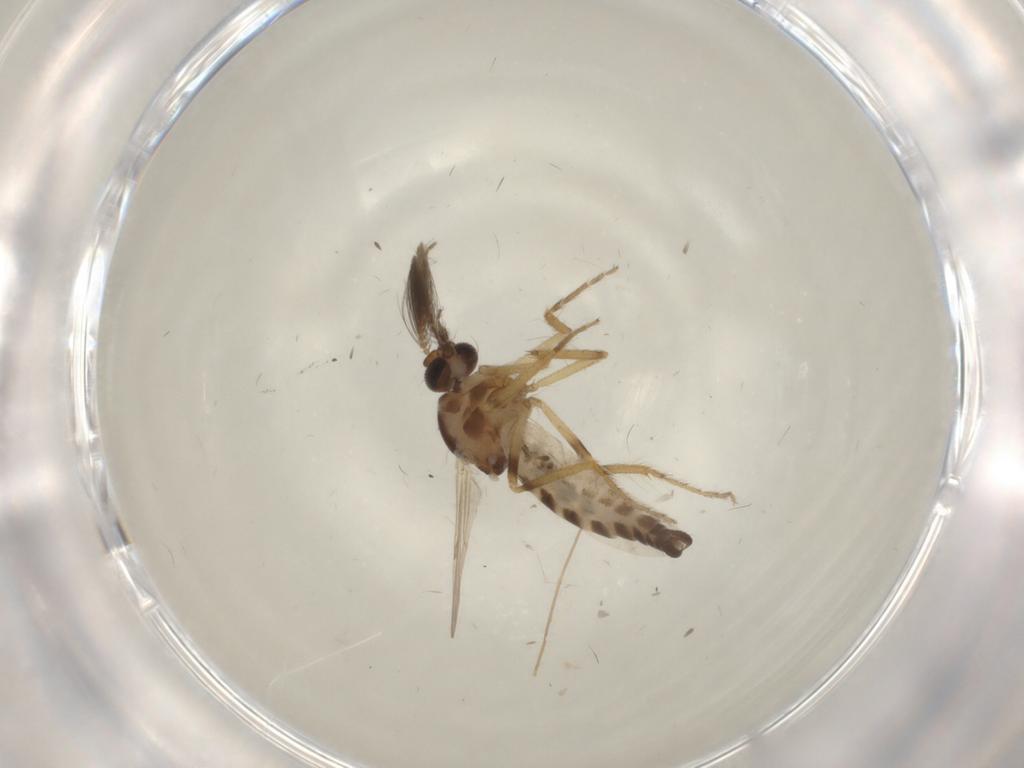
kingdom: Animalia
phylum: Arthropoda
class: Insecta
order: Diptera
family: Ceratopogonidae
